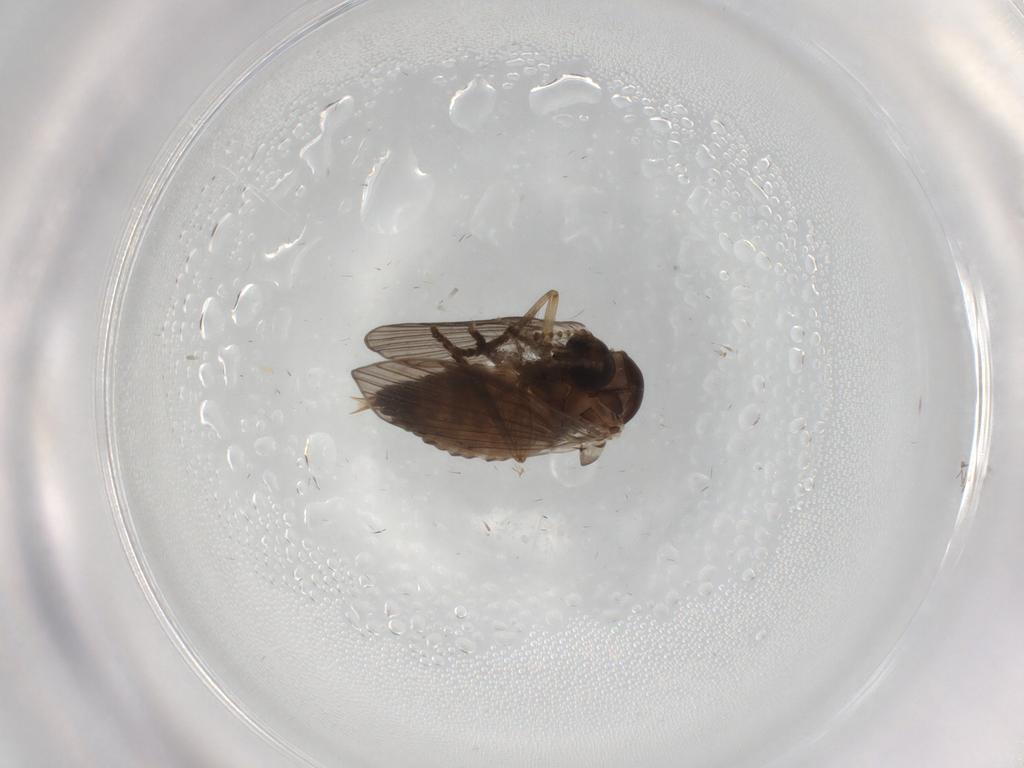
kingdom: Animalia
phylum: Arthropoda
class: Insecta
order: Diptera
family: Psychodidae
